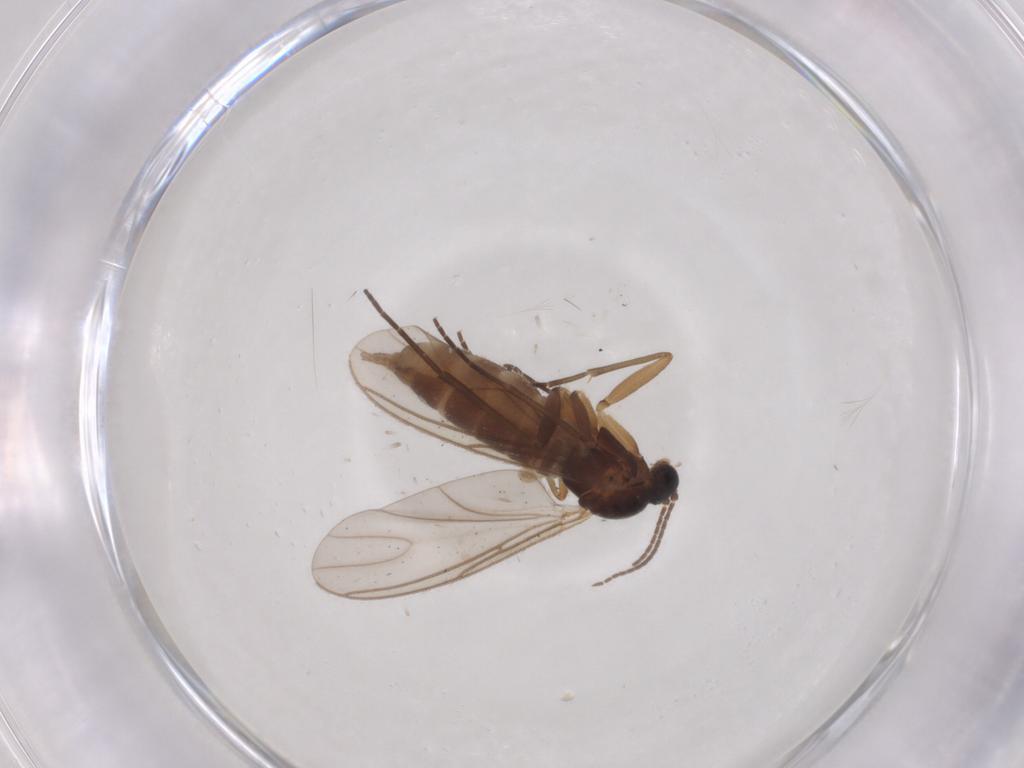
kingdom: Animalia
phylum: Arthropoda
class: Insecta
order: Diptera
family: Sciaridae
